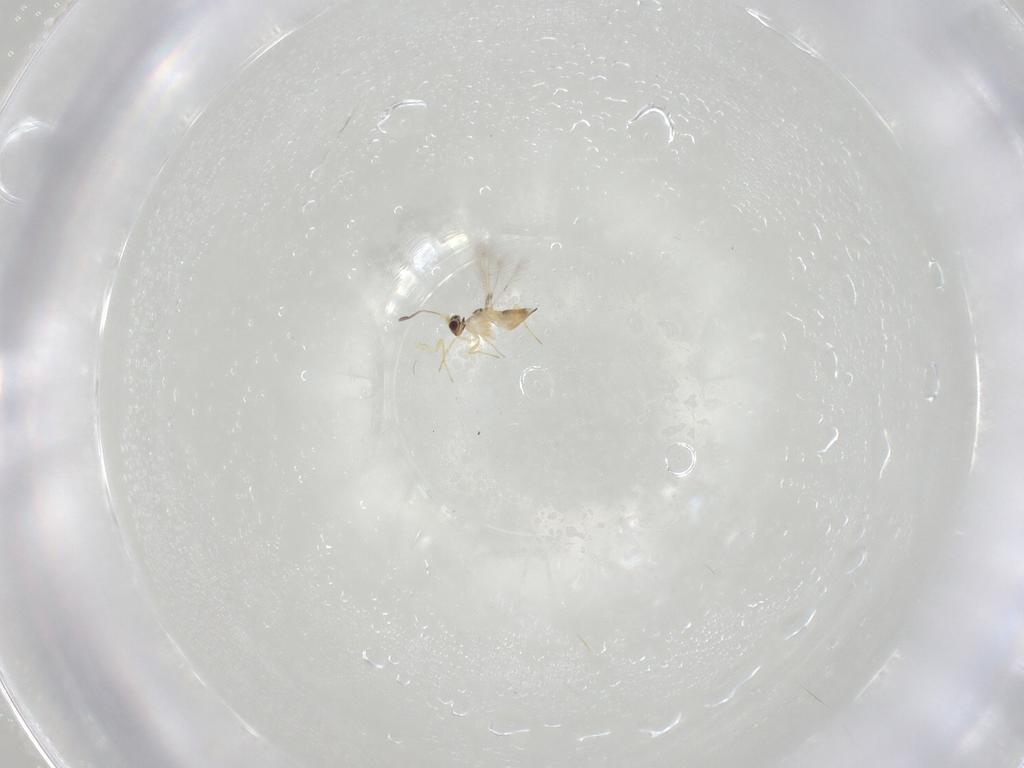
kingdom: Animalia
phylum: Arthropoda
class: Insecta
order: Hymenoptera
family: Mymaridae
